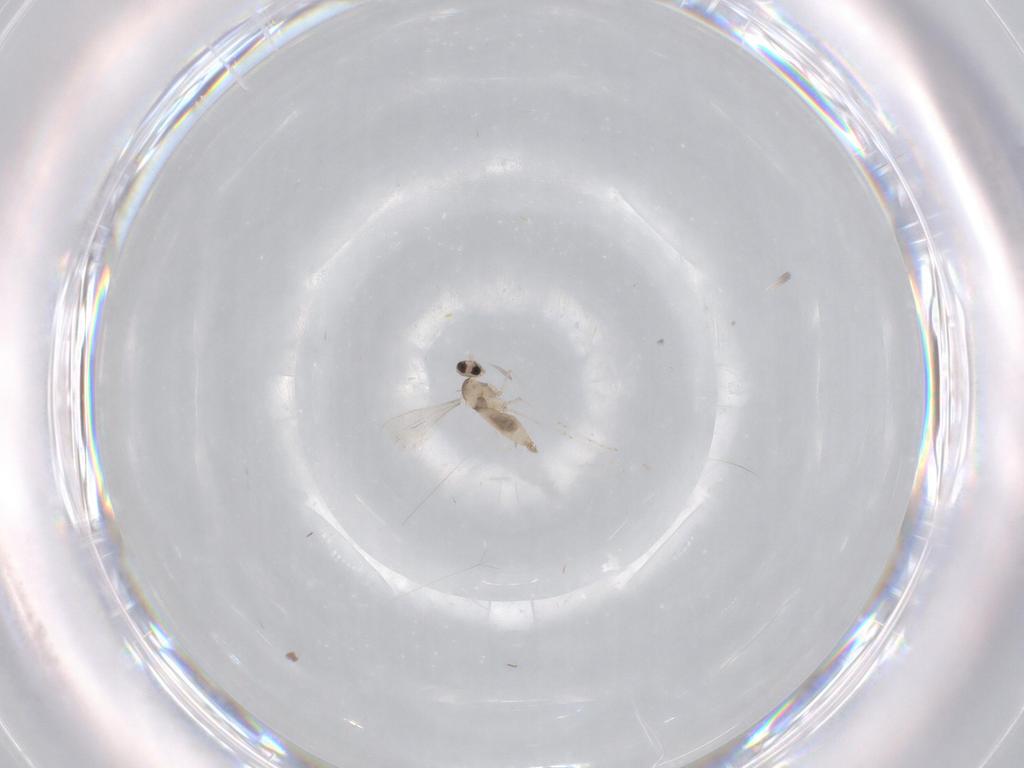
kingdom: Animalia
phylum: Arthropoda
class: Insecta
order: Diptera
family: Cecidomyiidae
